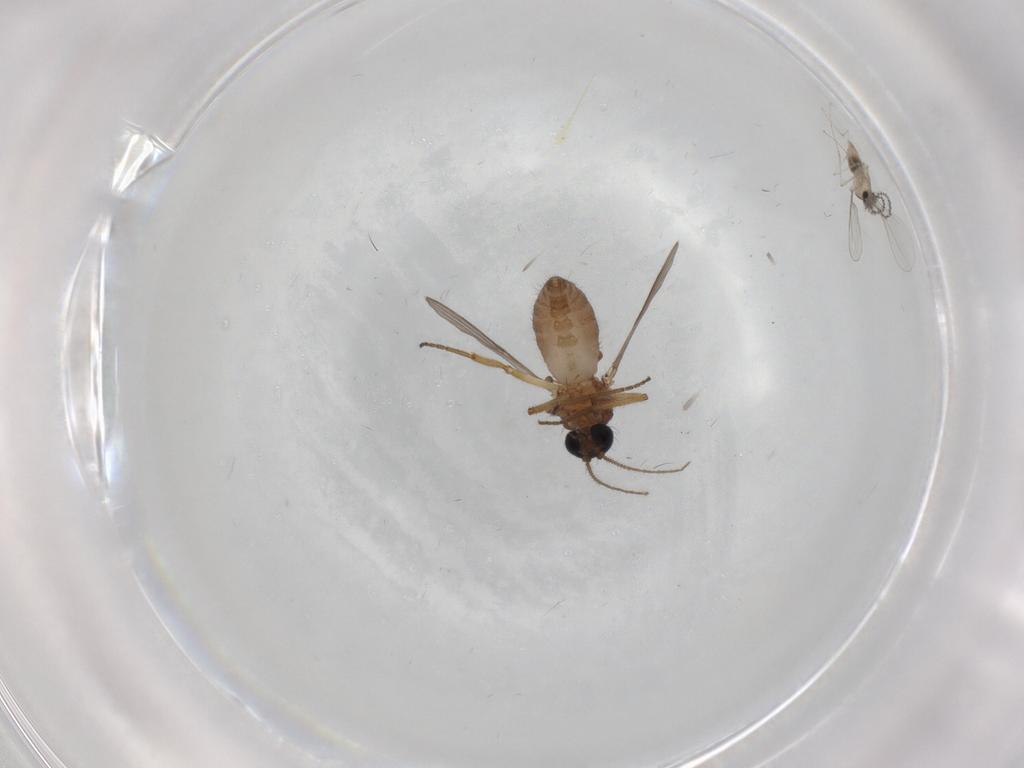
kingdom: Animalia
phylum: Arthropoda
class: Insecta
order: Diptera
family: Ceratopogonidae
